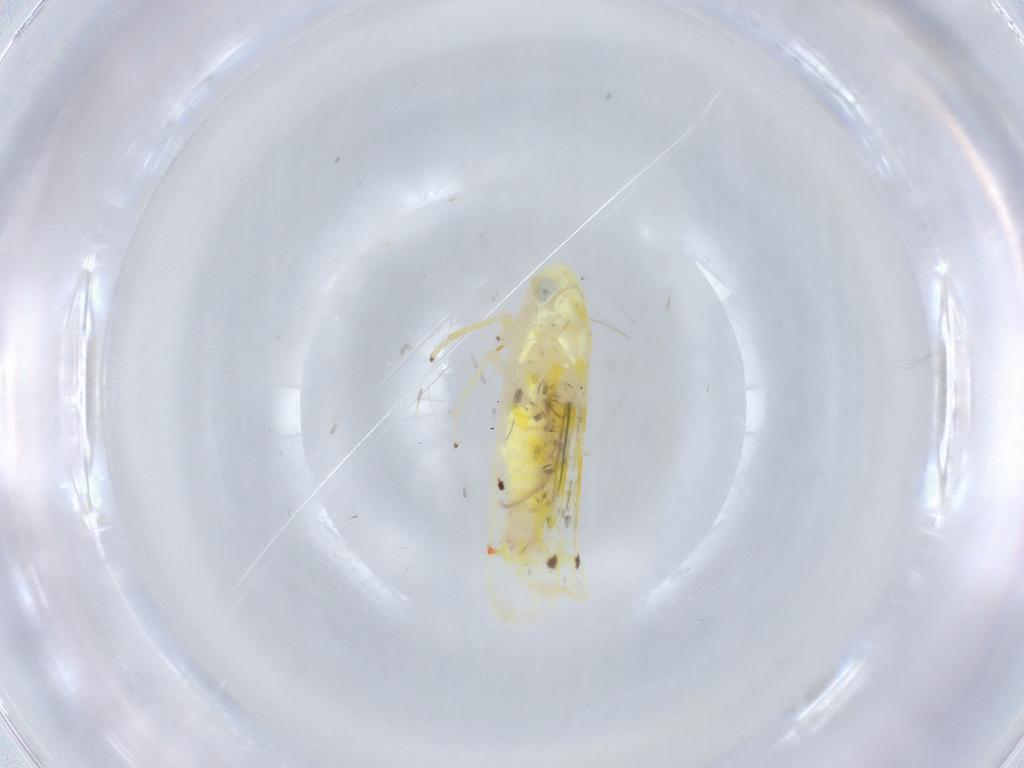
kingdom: Animalia
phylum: Arthropoda
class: Insecta
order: Hemiptera
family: Cicadellidae
